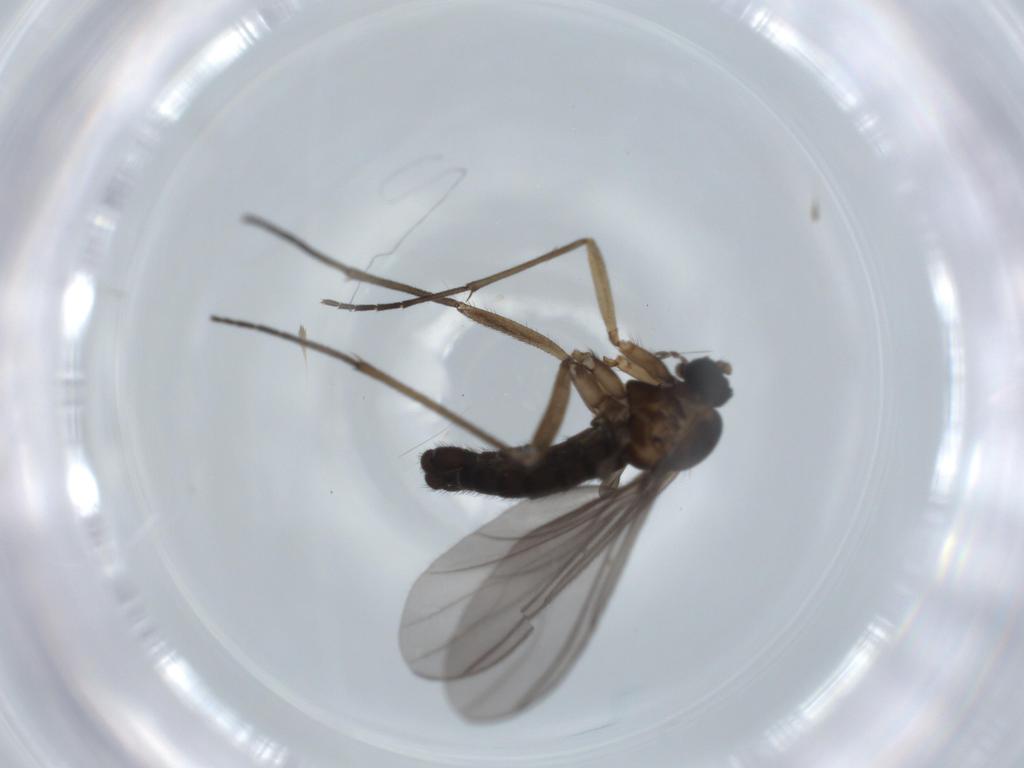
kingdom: Animalia
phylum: Arthropoda
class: Insecta
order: Diptera
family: Sciaridae
